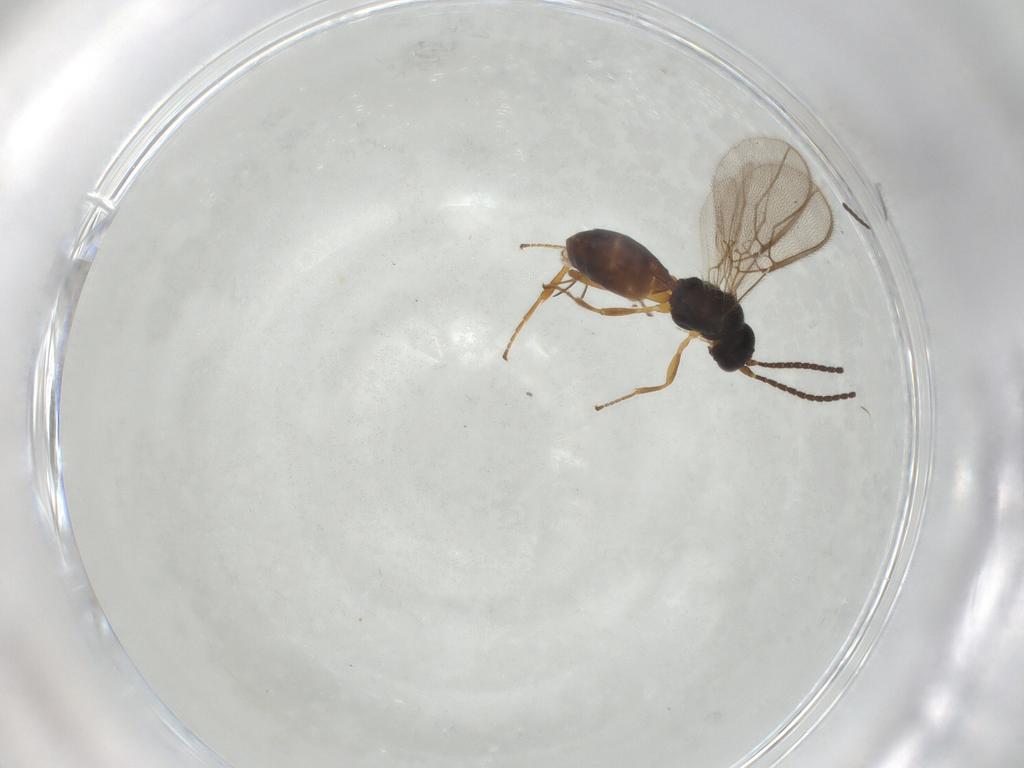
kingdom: Animalia
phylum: Arthropoda
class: Insecta
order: Hymenoptera
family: Braconidae
